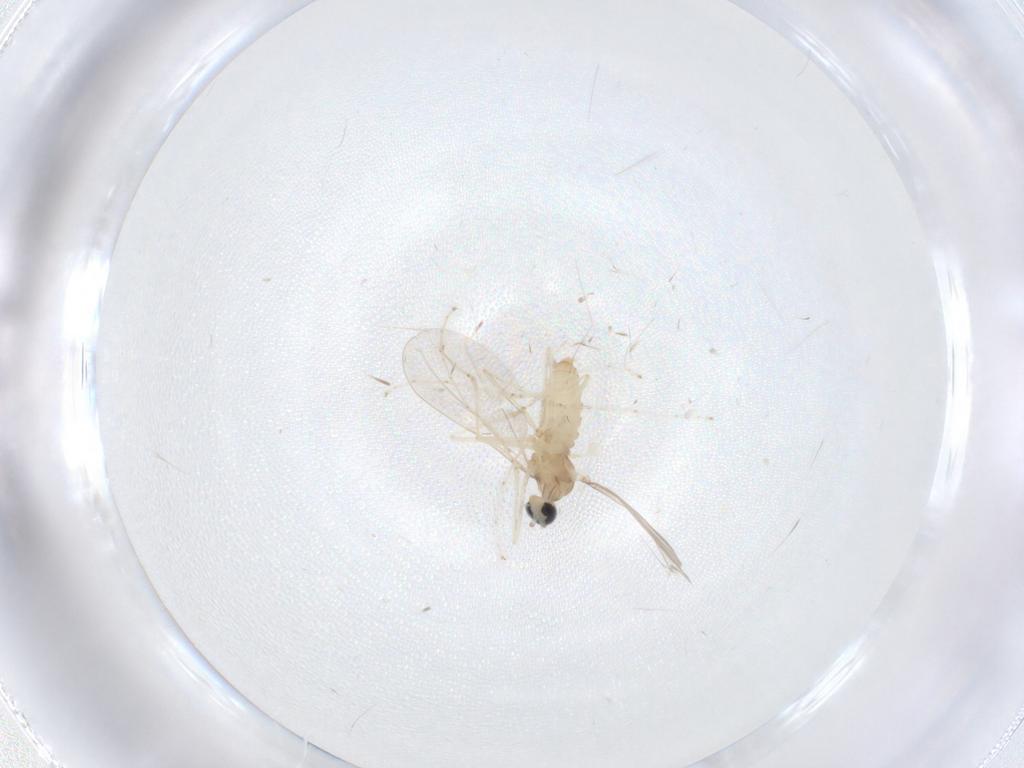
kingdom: Animalia
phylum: Arthropoda
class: Insecta
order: Diptera
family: Cecidomyiidae
